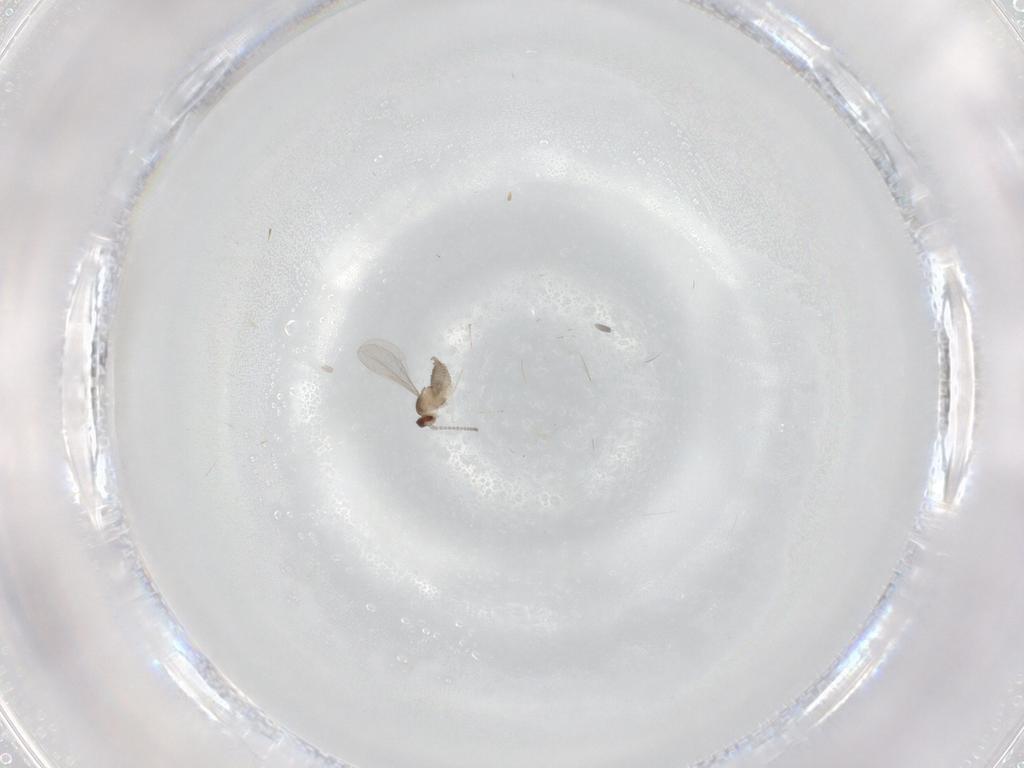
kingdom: Animalia
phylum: Arthropoda
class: Insecta
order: Diptera
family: Cecidomyiidae
